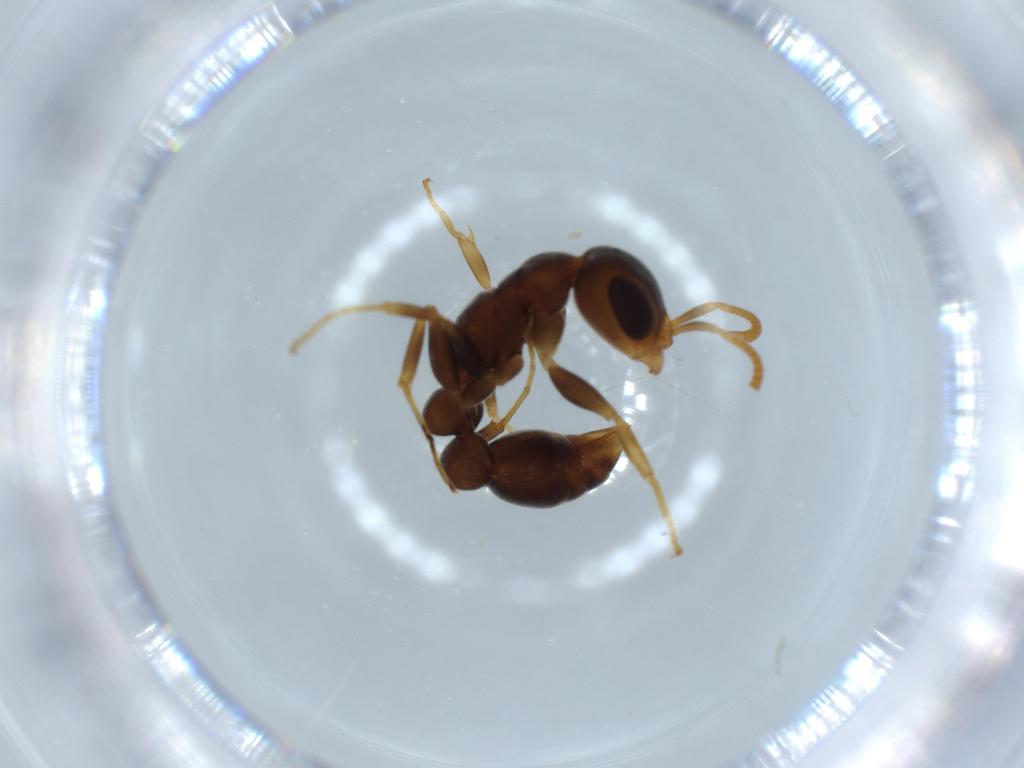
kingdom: Animalia
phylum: Arthropoda
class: Insecta
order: Hymenoptera
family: Formicidae
